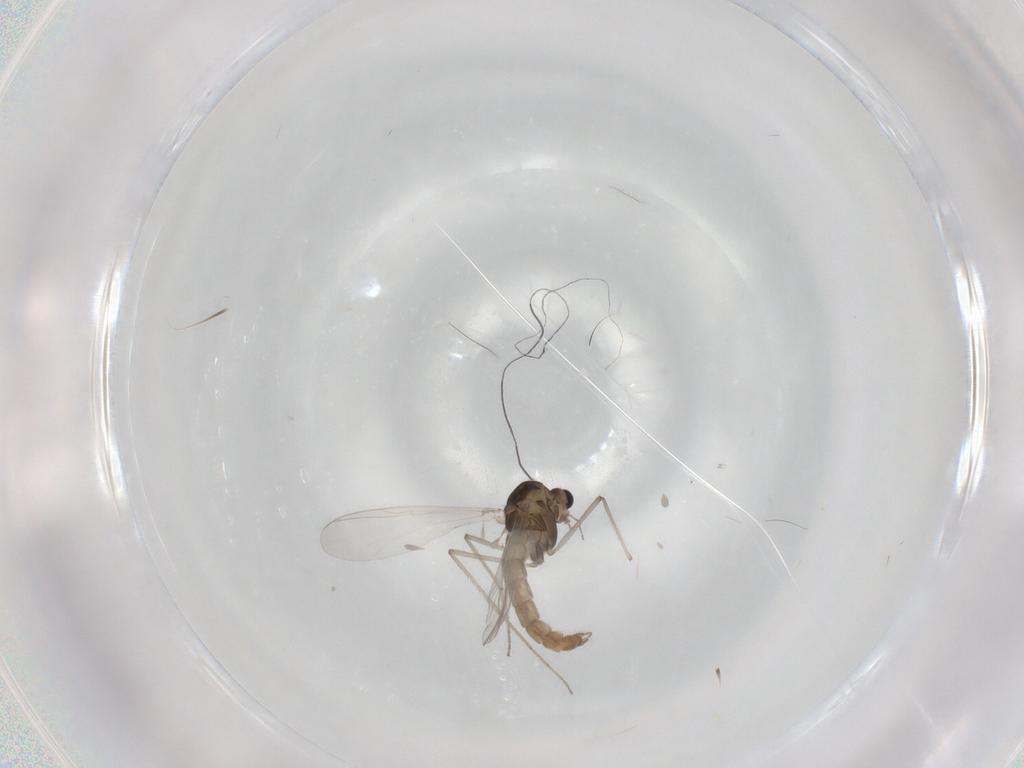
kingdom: Animalia
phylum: Arthropoda
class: Insecta
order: Diptera
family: Chironomidae
